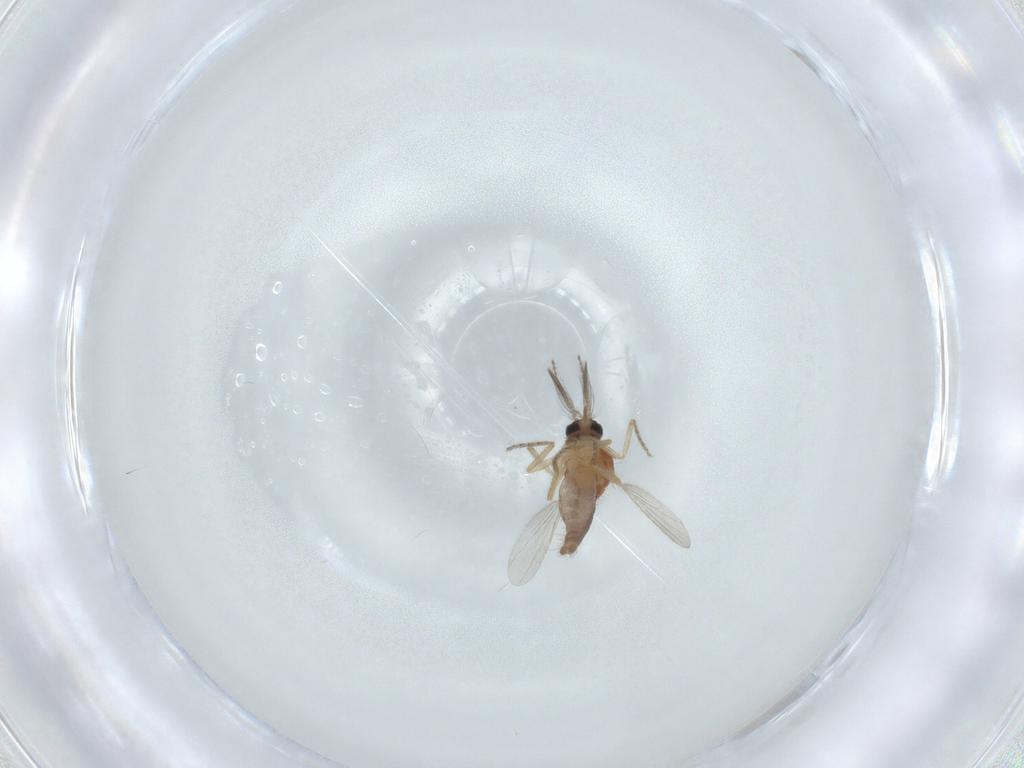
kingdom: Animalia
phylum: Arthropoda
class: Insecta
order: Diptera
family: Ceratopogonidae
